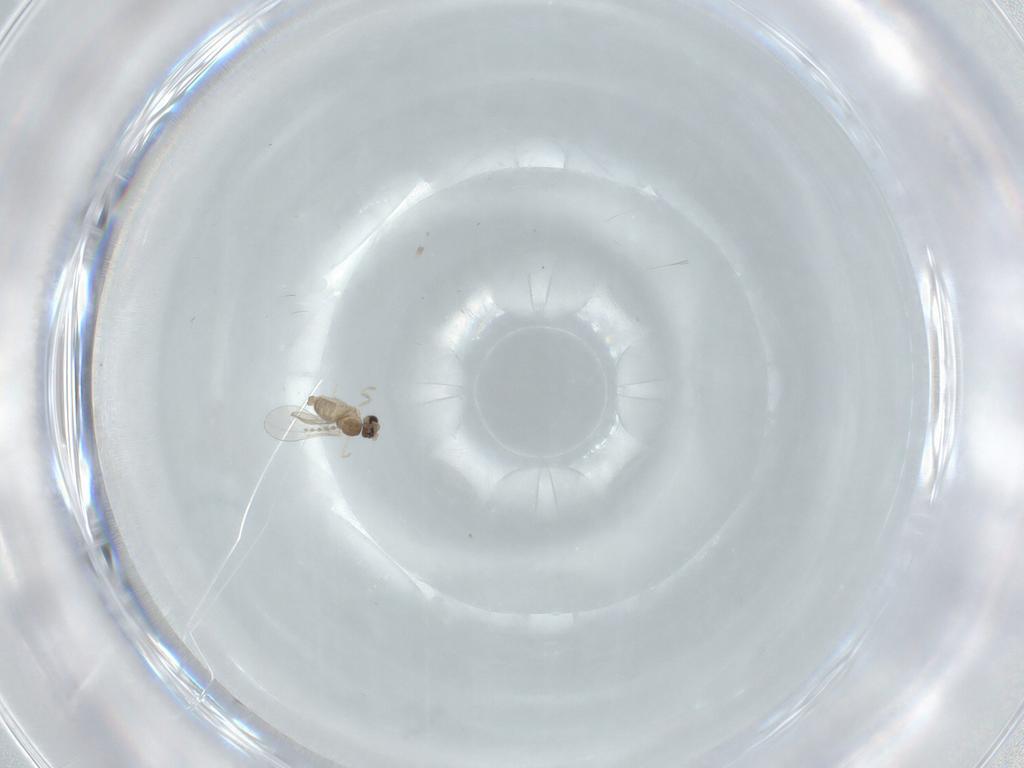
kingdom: Animalia
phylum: Arthropoda
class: Insecta
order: Diptera
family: Cecidomyiidae
